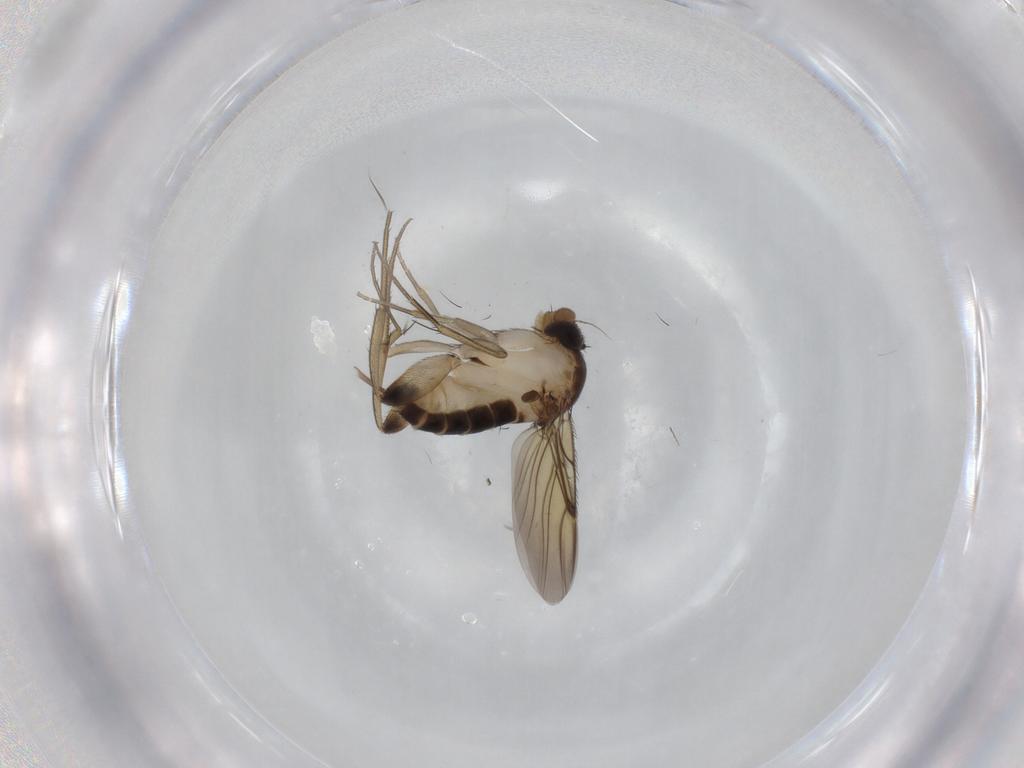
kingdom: Animalia
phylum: Arthropoda
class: Insecta
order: Diptera
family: Phoridae
